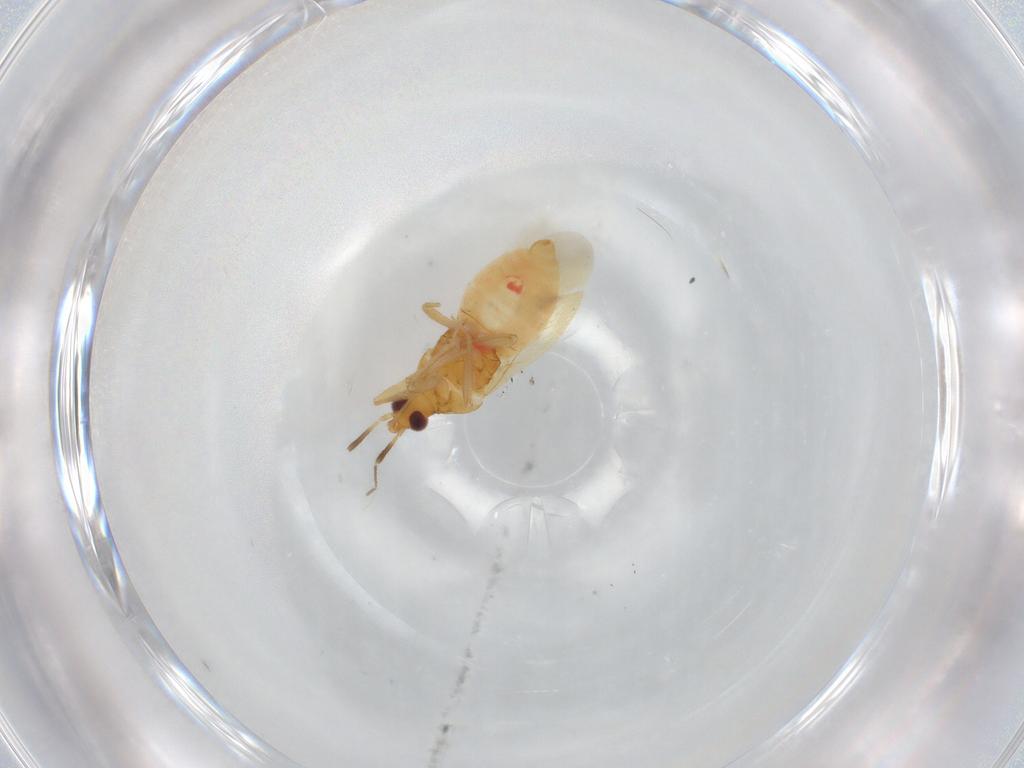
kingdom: Animalia
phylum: Arthropoda
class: Insecta
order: Hemiptera
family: Anthocoridae
